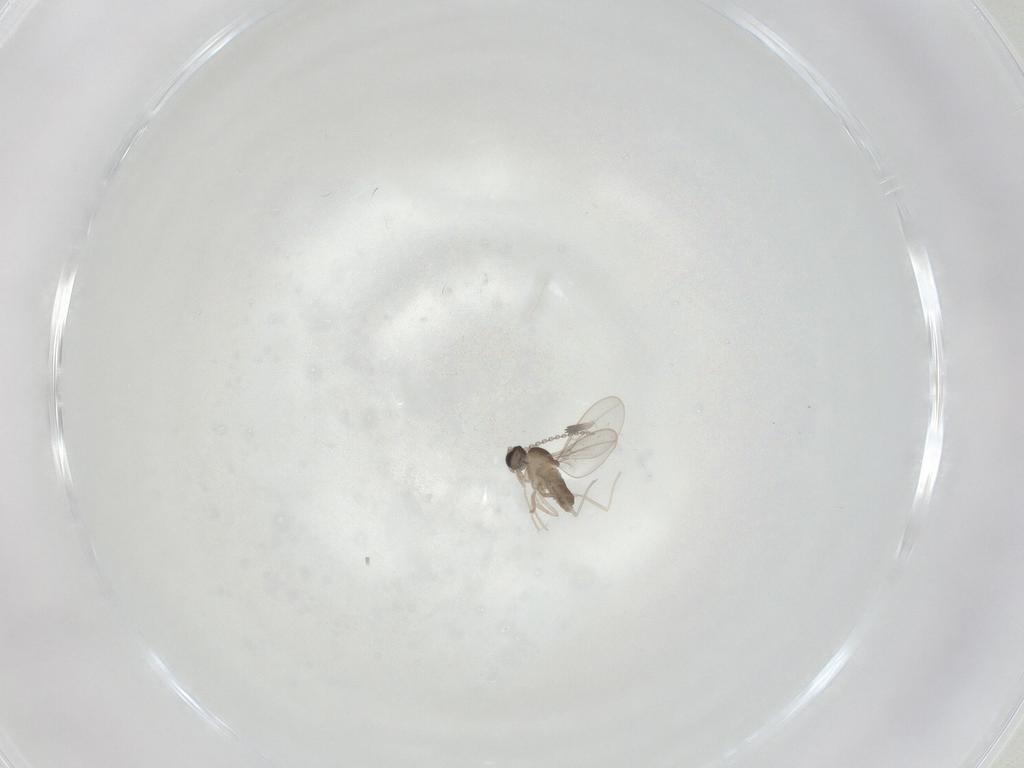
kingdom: Animalia
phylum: Arthropoda
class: Insecta
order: Diptera
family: Cecidomyiidae
